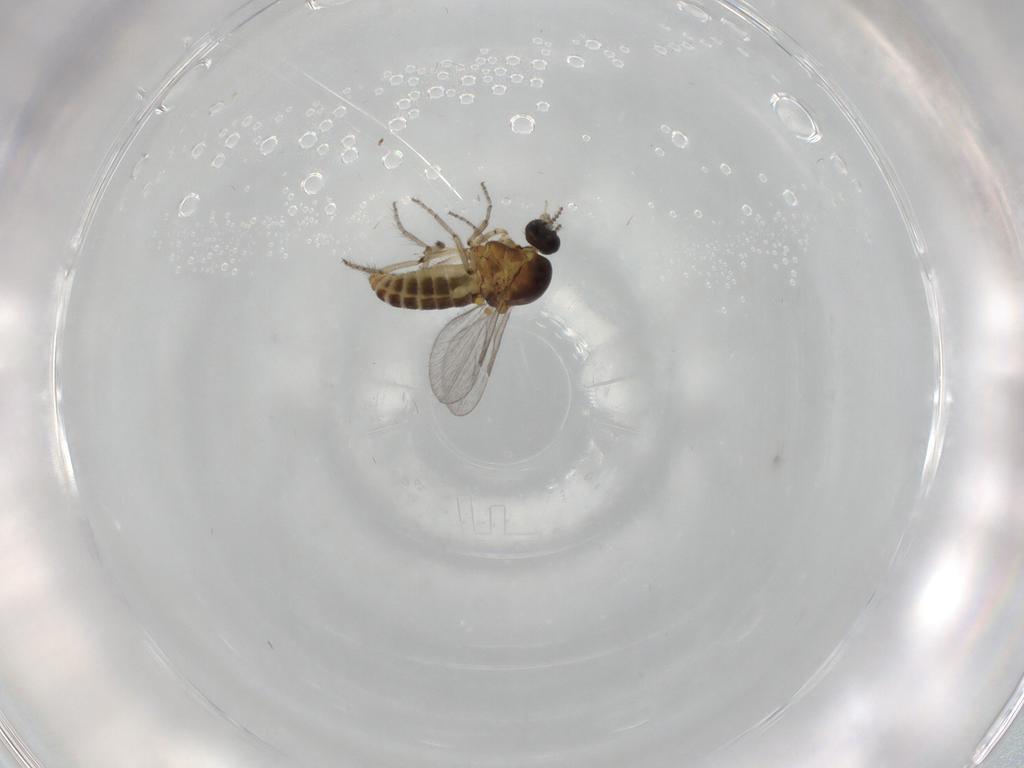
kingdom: Animalia
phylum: Arthropoda
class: Insecta
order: Diptera
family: Ceratopogonidae
